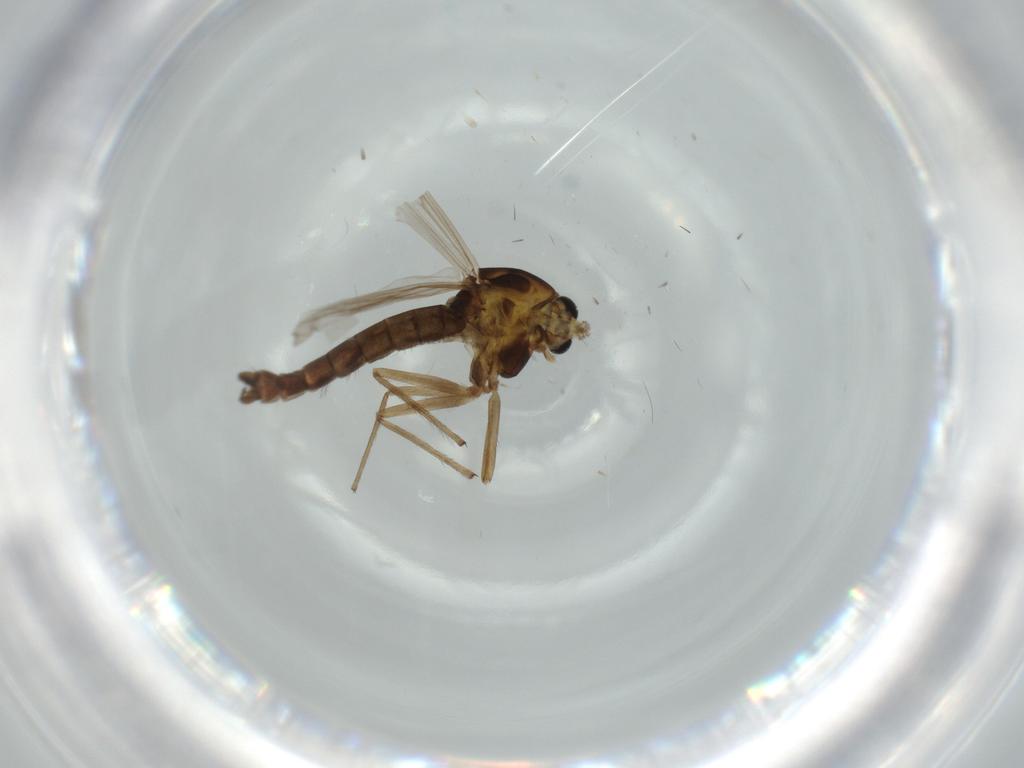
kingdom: Animalia
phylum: Arthropoda
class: Insecta
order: Diptera
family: Chironomidae
